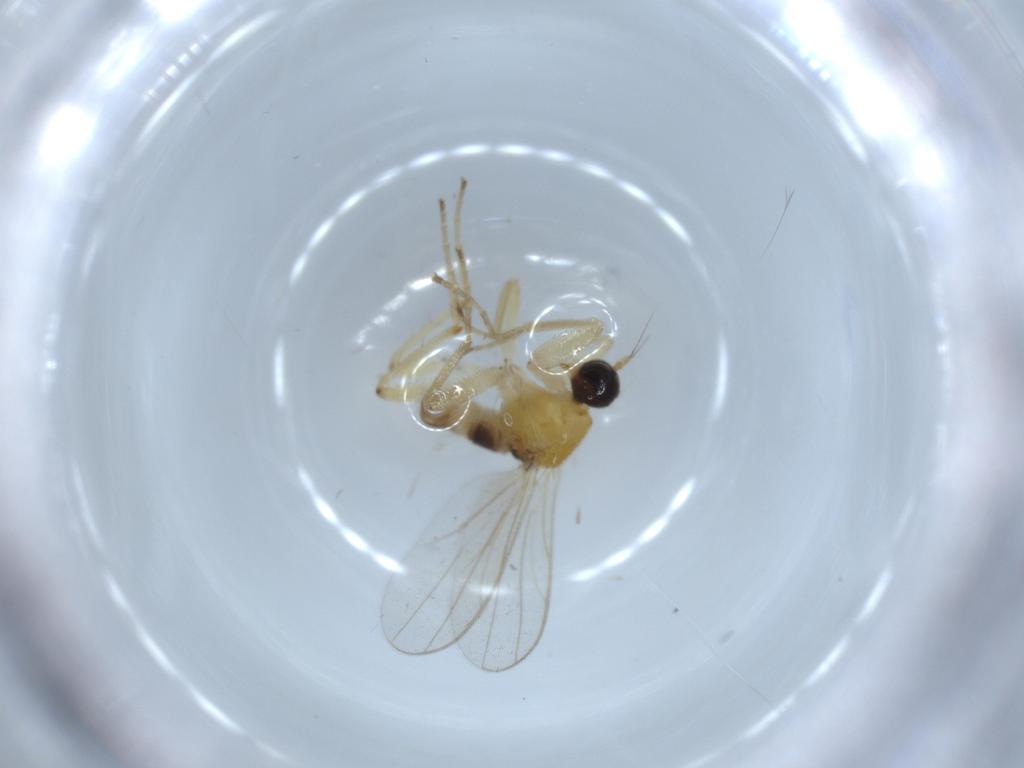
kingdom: Animalia
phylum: Arthropoda
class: Insecta
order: Diptera
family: Hybotidae
